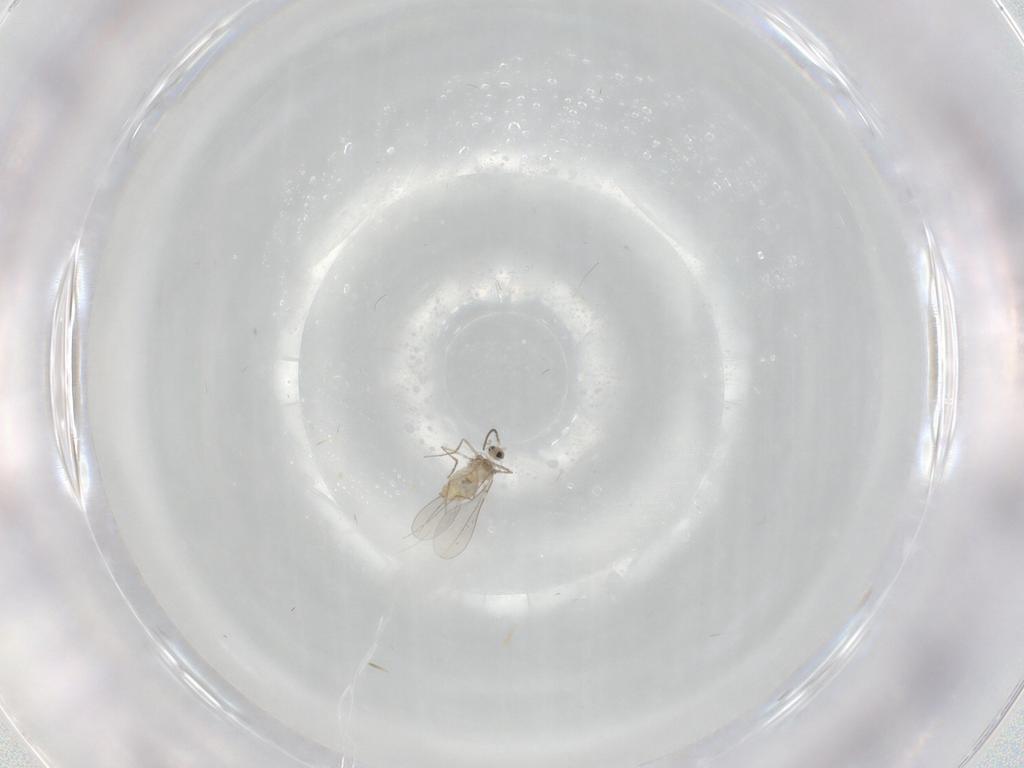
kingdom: Animalia
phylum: Arthropoda
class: Insecta
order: Diptera
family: Cecidomyiidae
